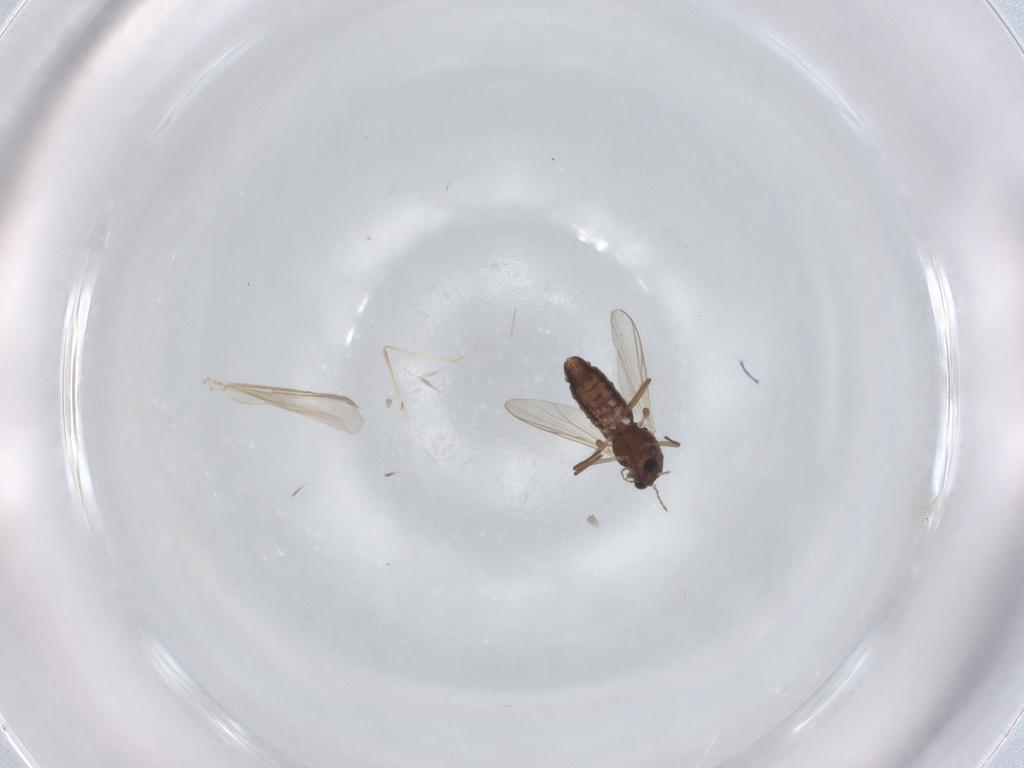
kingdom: Animalia
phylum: Arthropoda
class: Insecta
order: Diptera
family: Chironomidae
